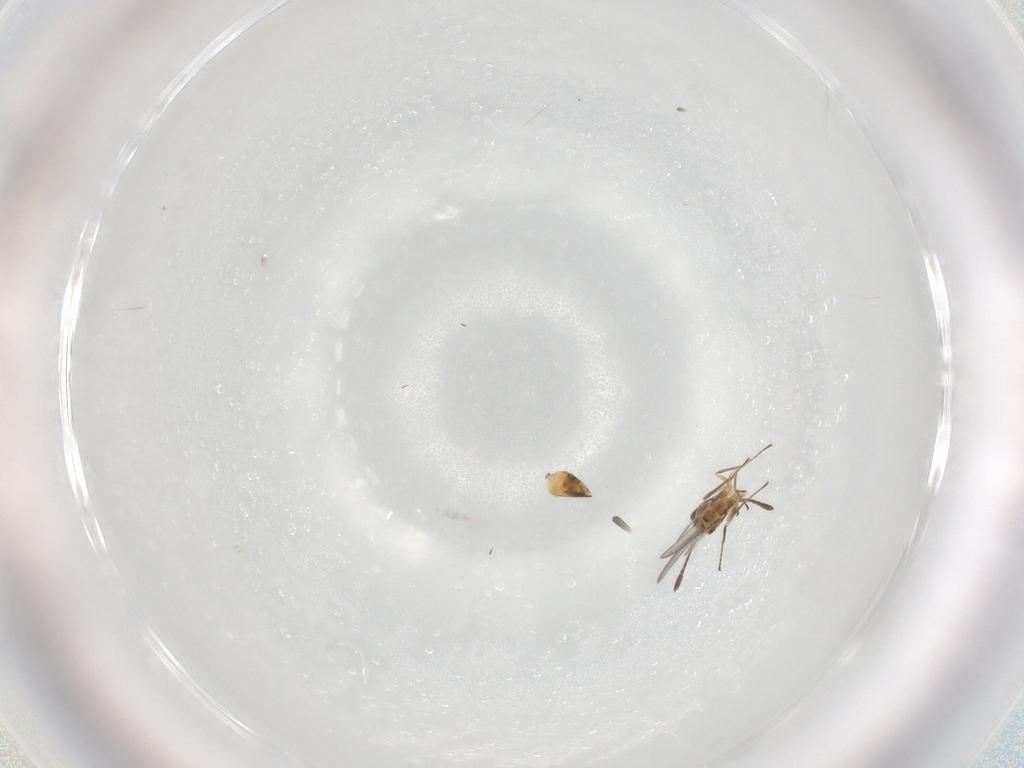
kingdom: Animalia
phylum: Arthropoda
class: Insecta
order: Hymenoptera
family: Mymaridae
